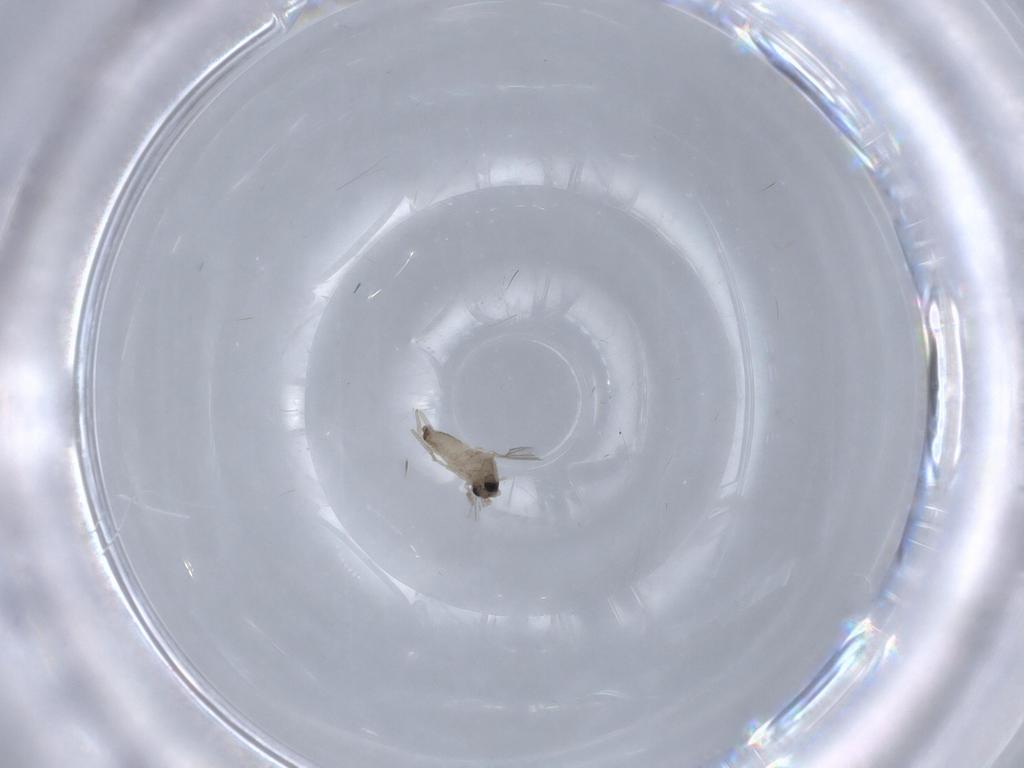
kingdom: Animalia
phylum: Arthropoda
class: Insecta
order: Diptera
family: Cecidomyiidae
